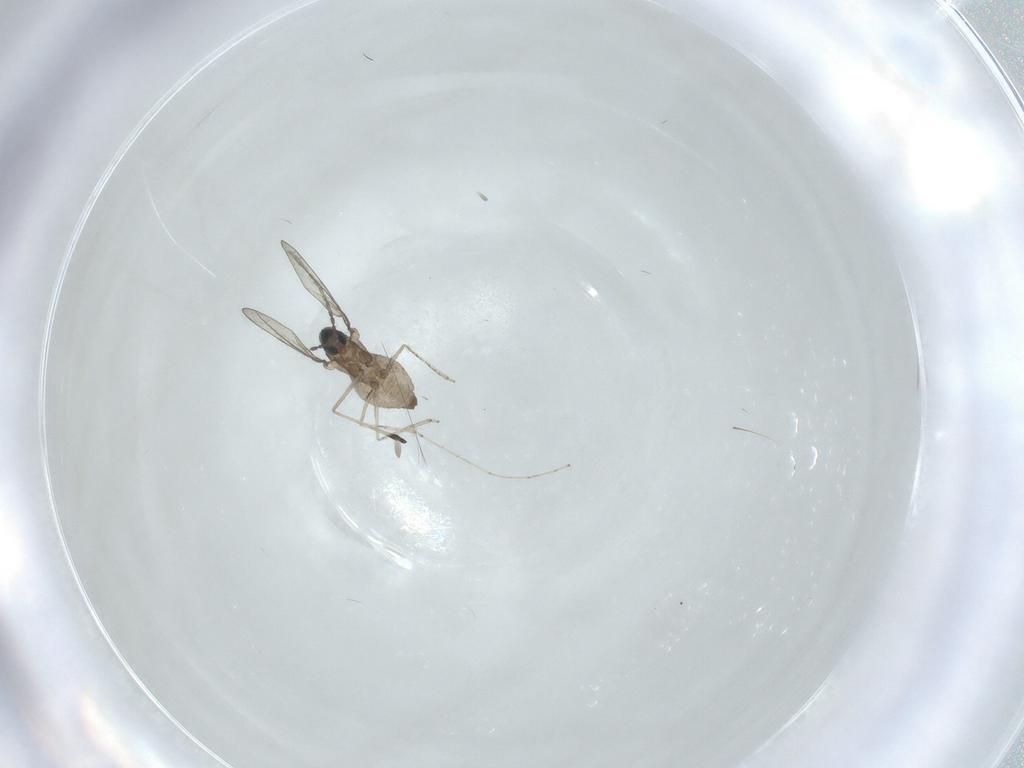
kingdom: Animalia
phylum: Arthropoda
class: Insecta
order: Diptera
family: Cecidomyiidae
